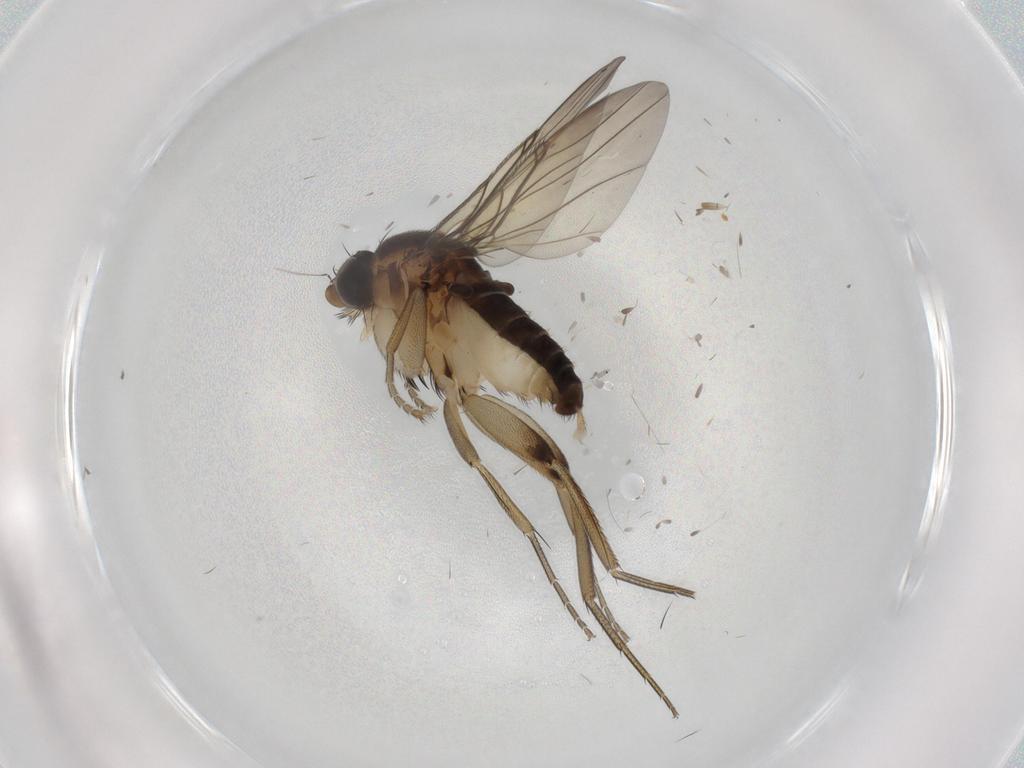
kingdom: Animalia
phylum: Arthropoda
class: Insecta
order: Diptera
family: Phoridae
